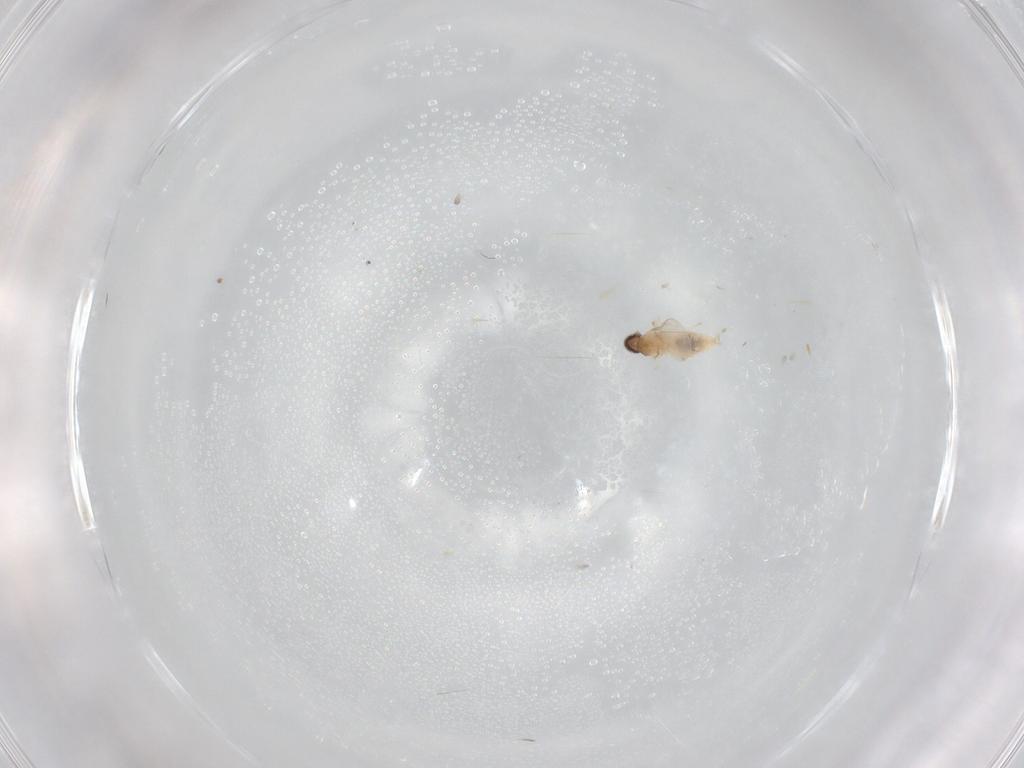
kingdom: Animalia
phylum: Arthropoda
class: Insecta
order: Diptera
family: Cecidomyiidae
